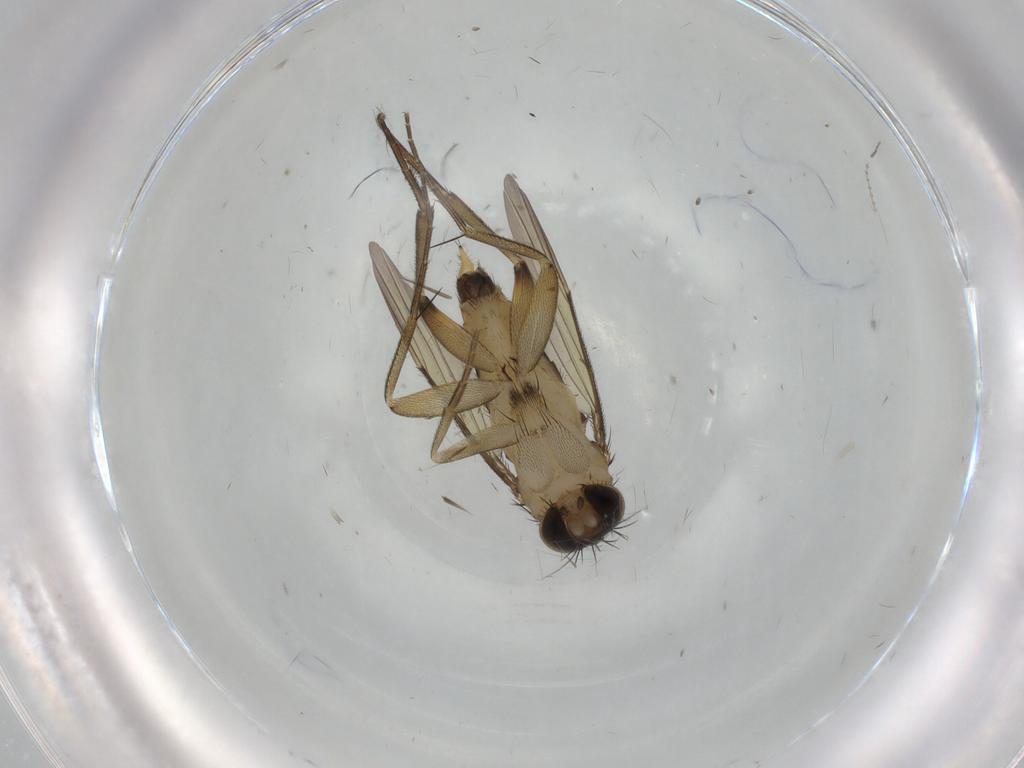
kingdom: Animalia
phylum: Arthropoda
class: Insecta
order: Diptera
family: Milichiidae
